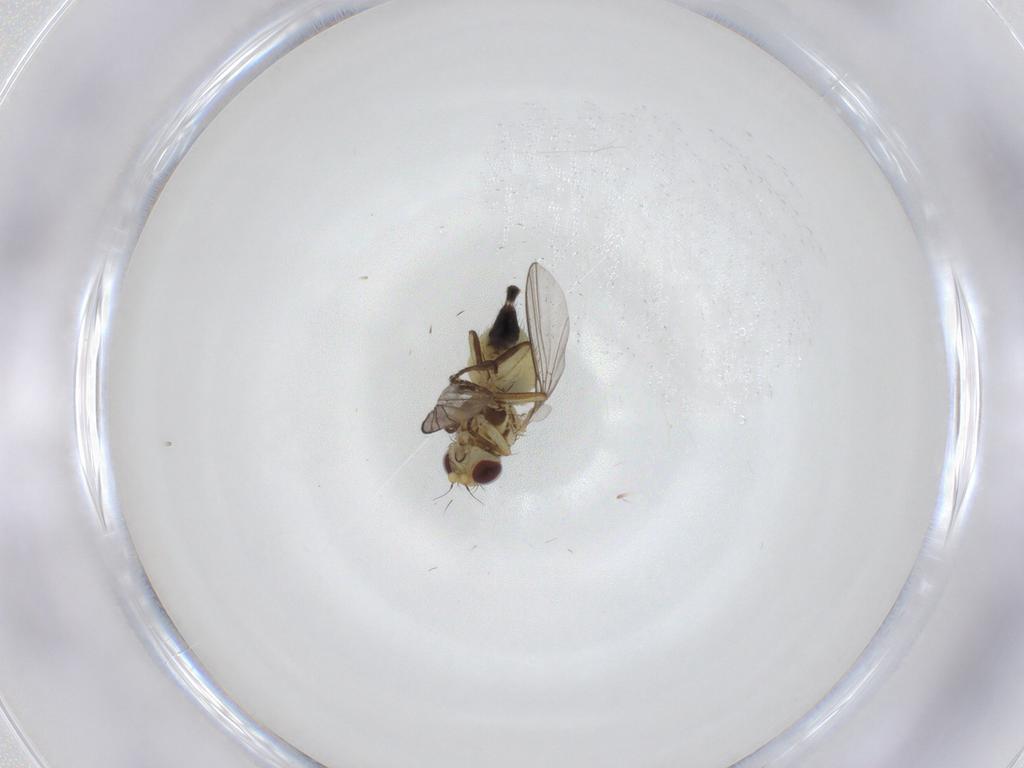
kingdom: Animalia
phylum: Arthropoda
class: Insecta
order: Diptera
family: Agromyzidae
